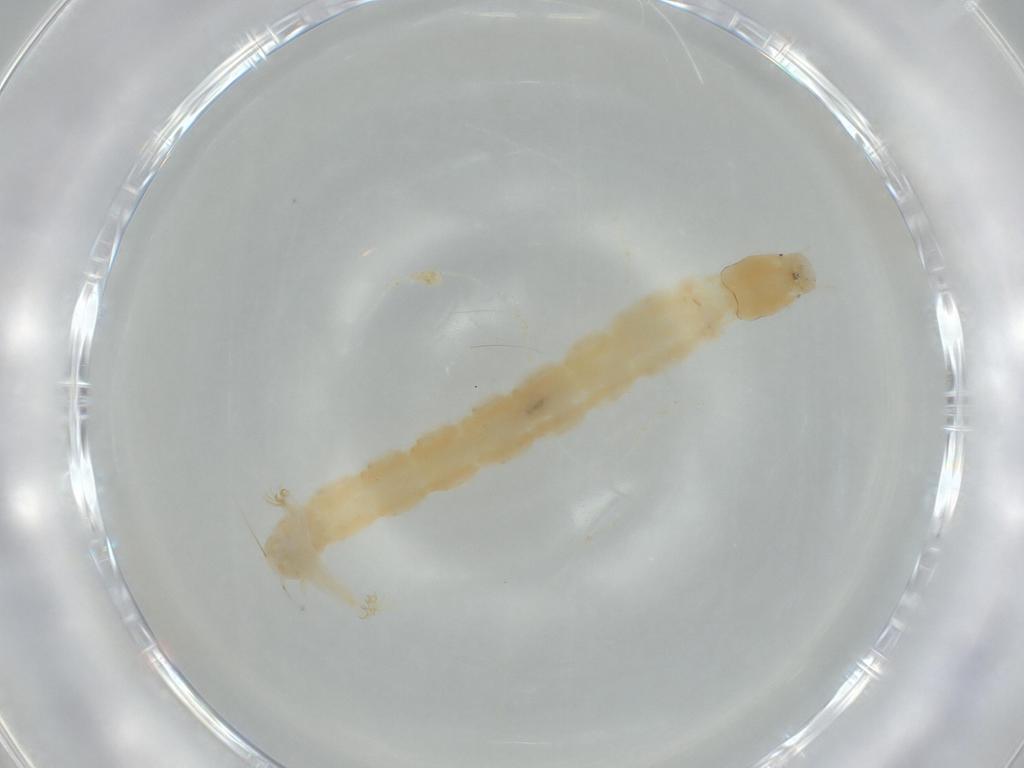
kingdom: Animalia
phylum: Arthropoda
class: Insecta
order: Diptera
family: Chironomidae
